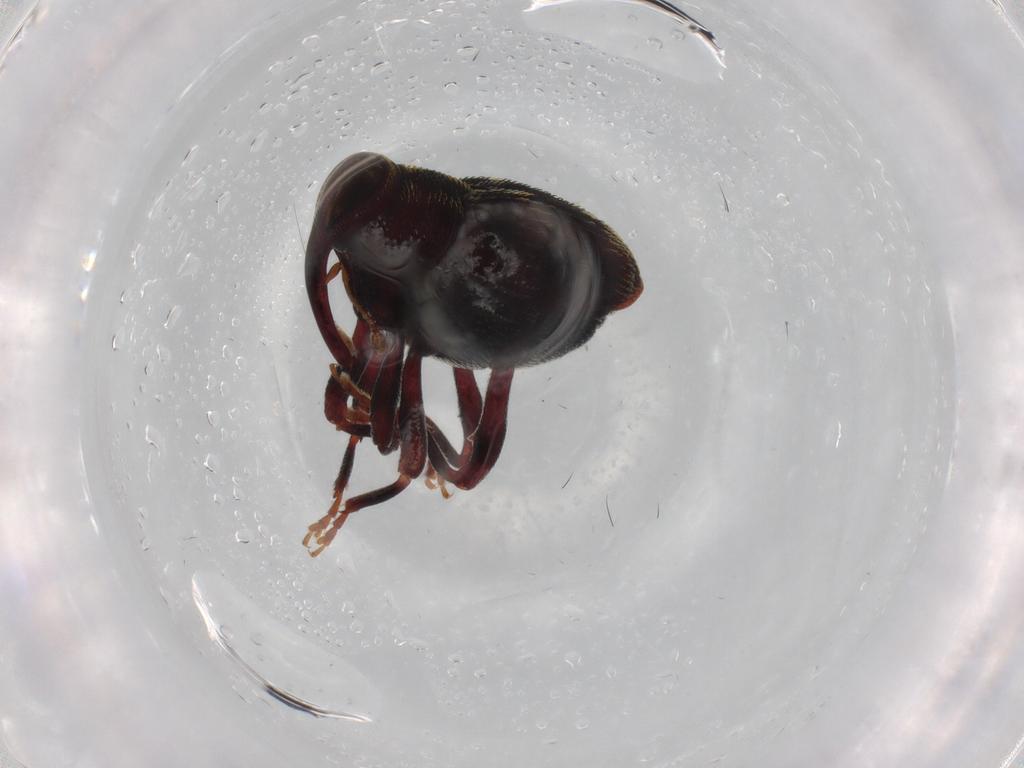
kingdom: Animalia
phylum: Arthropoda
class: Insecta
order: Coleoptera
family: Curculionidae
